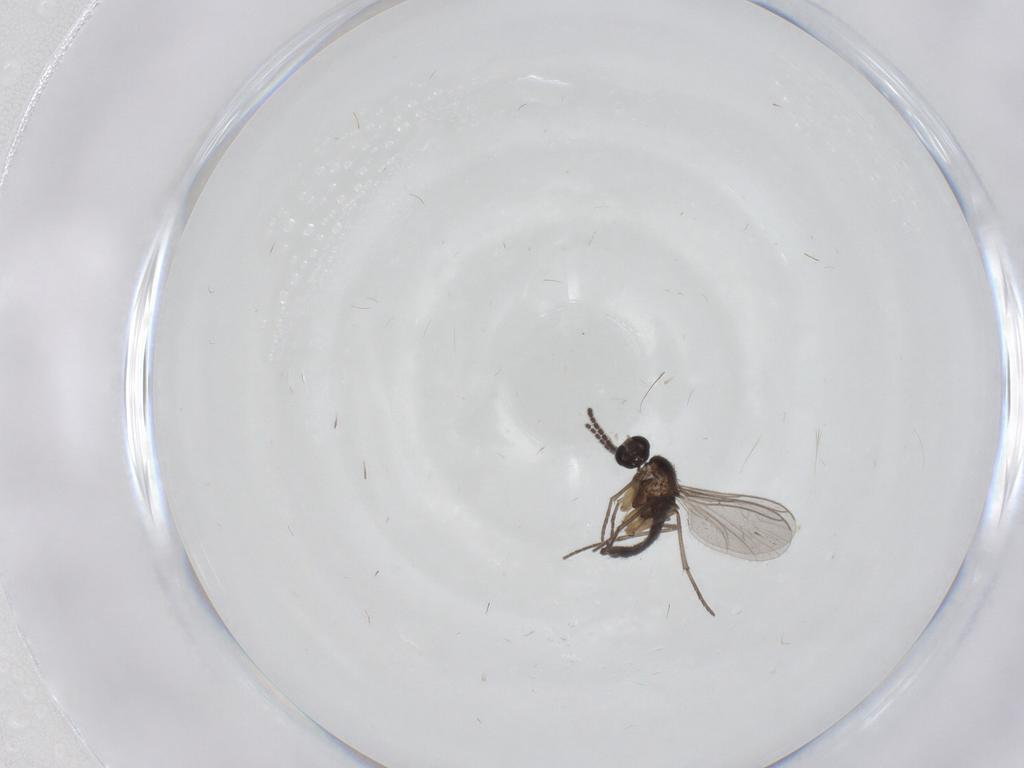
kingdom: Animalia
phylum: Arthropoda
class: Insecta
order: Diptera
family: Sciaridae
